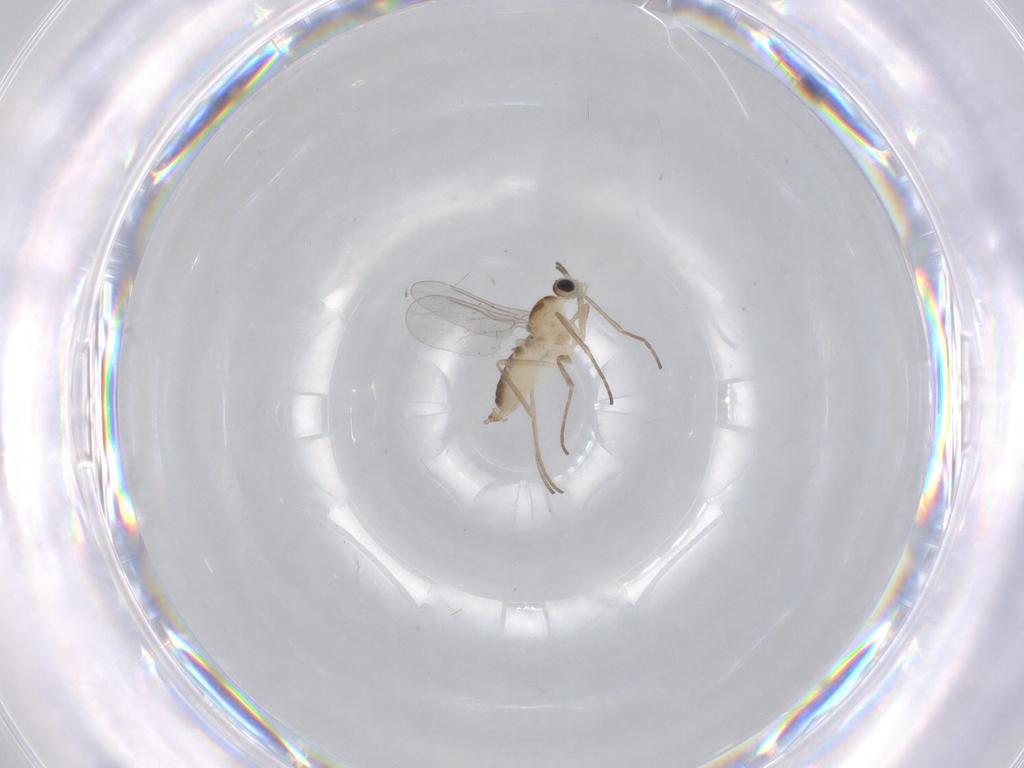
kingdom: Animalia
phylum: Arthropoda
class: Insecta
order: Diptera
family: Cecidomyiidae
